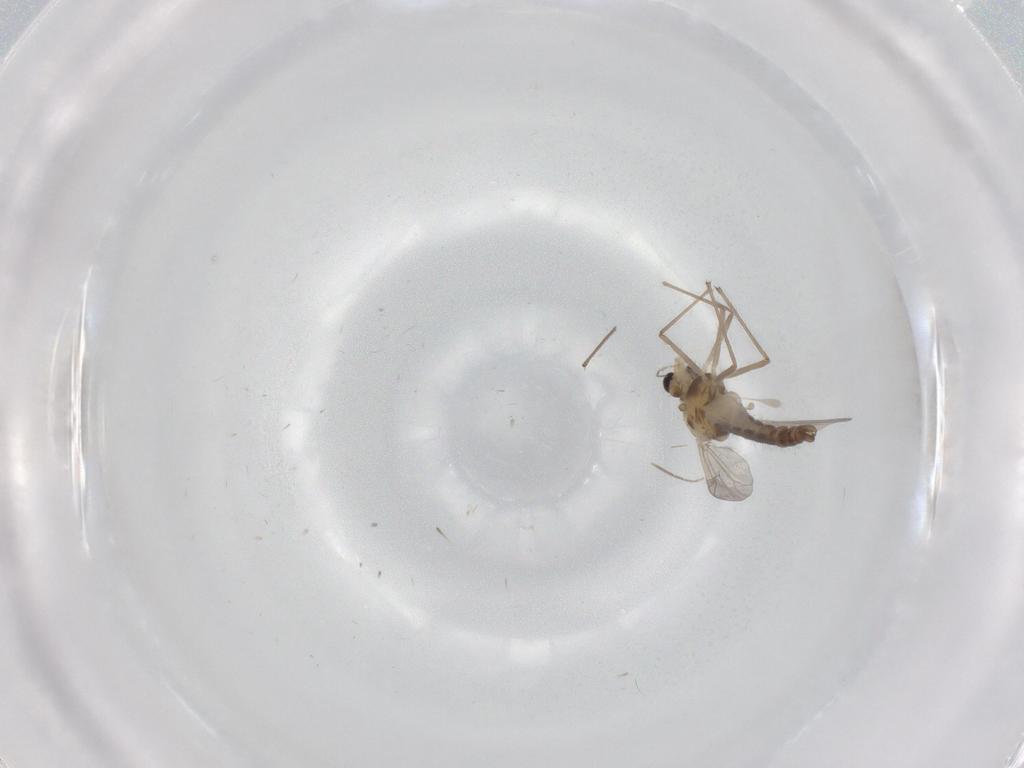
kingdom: Animalia
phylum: Arthropoda
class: Insecta
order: Diptera
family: Chironomidae
